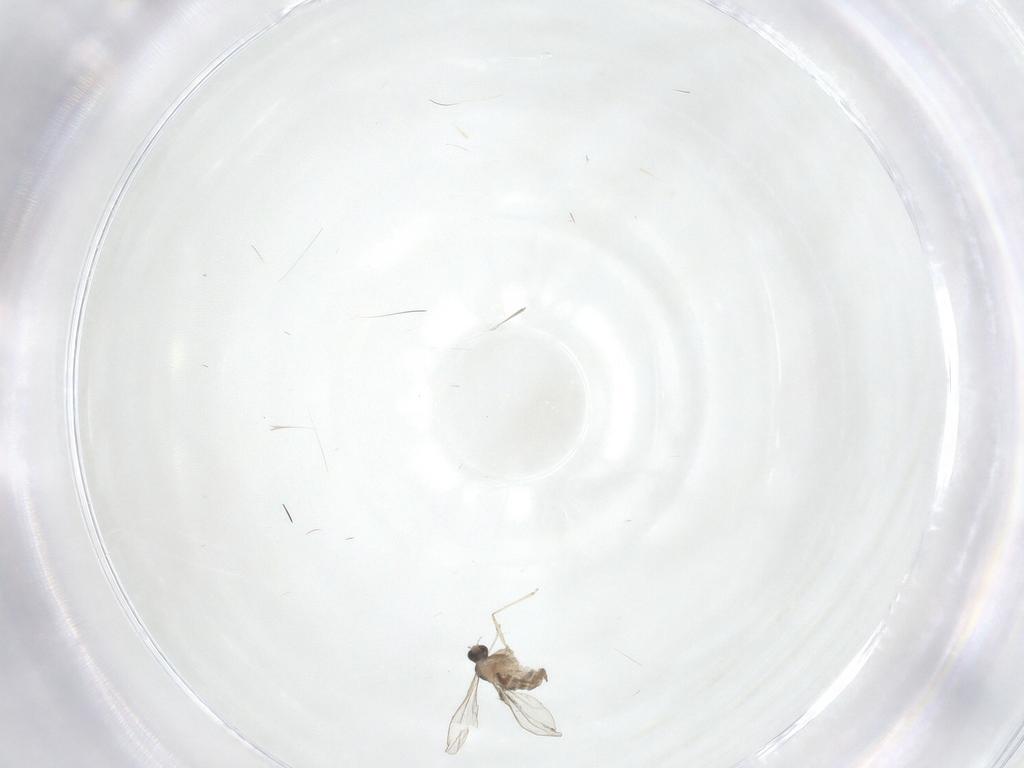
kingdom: Animalia
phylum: Arthropoda
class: Insecta
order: Diptera
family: Cecidomyiidae
